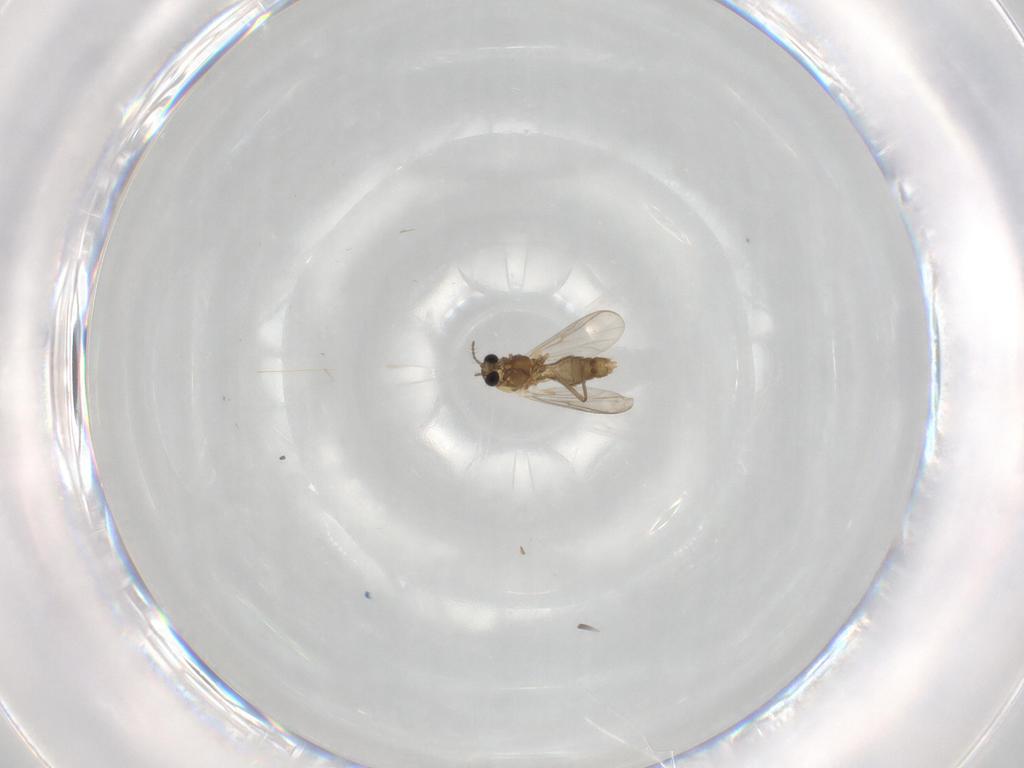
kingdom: Animalia
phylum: Arthropoda
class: Insecta
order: Diptera
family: Chironomidae
